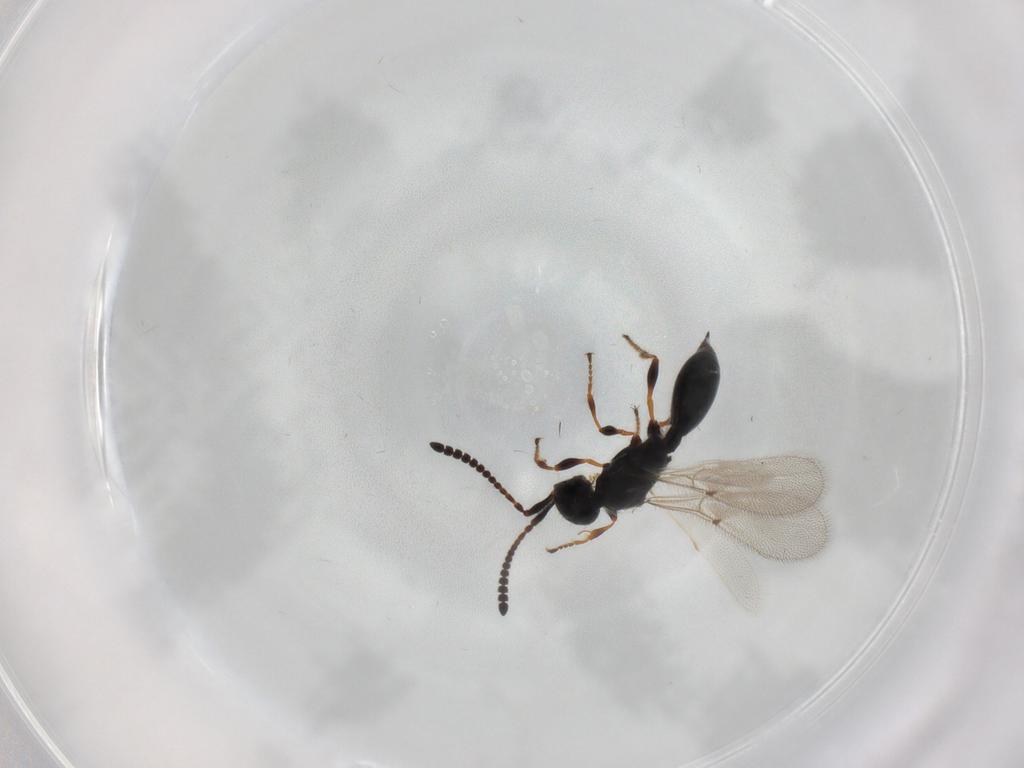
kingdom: Animalia
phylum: Arthropoda
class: Insecta
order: Hymenoptera
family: Diapriidae
